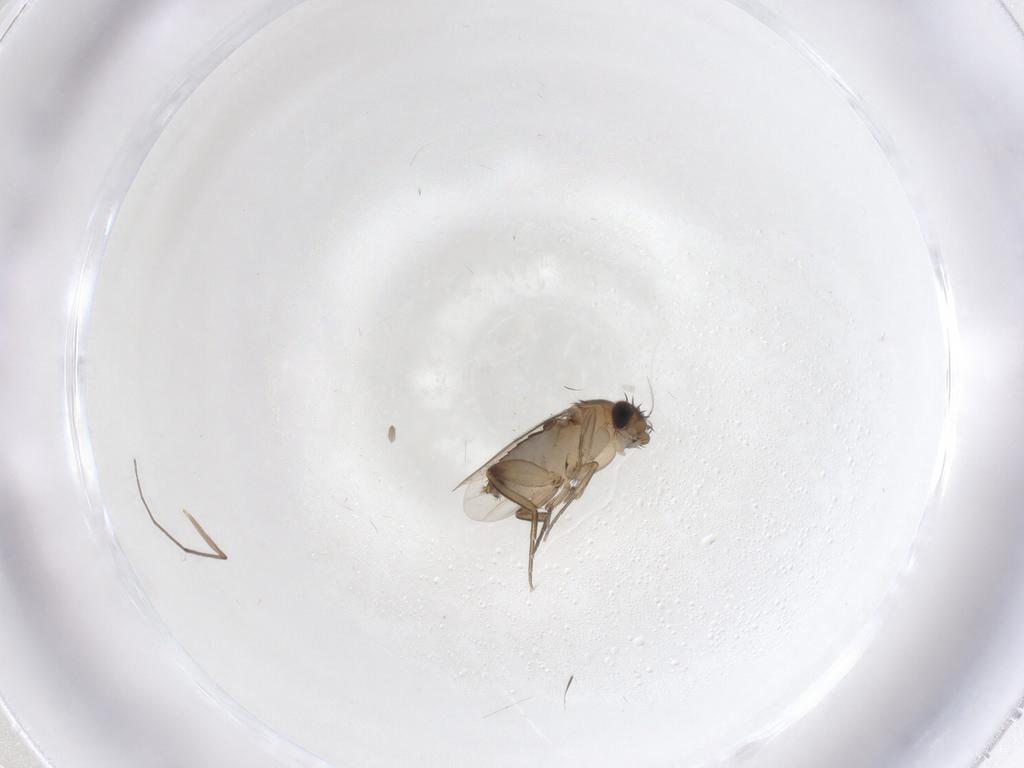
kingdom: Animalia
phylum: Arthropoda
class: Insecta
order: Diptera
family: Phoridae
